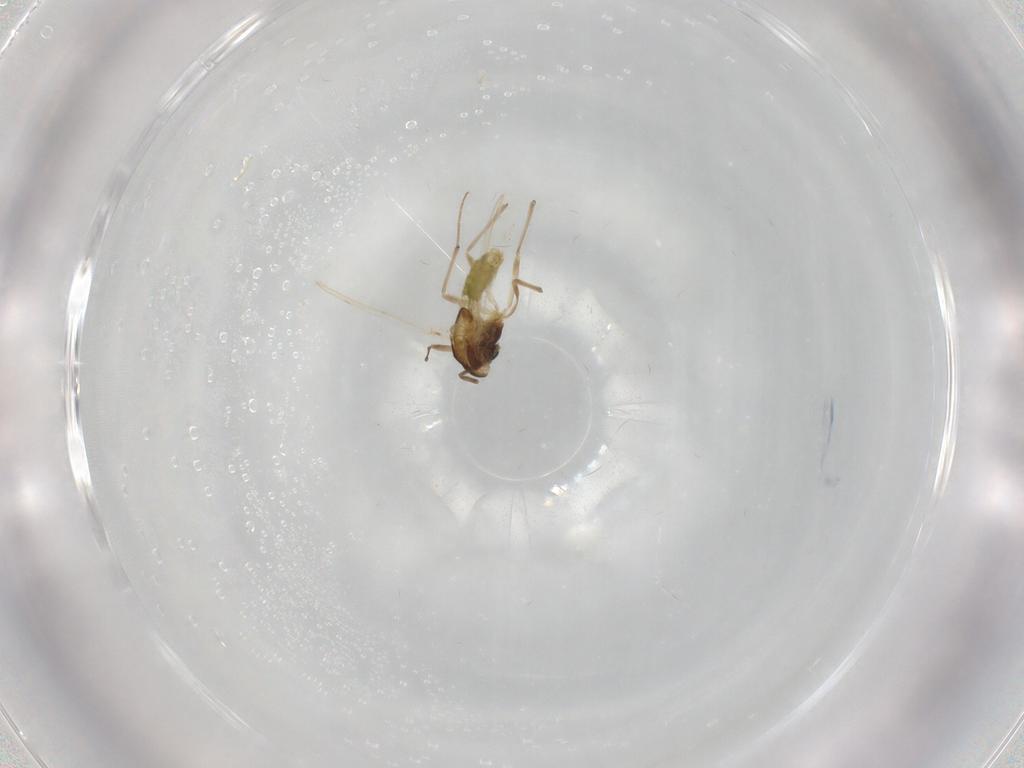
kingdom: Animalia
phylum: Arthropoda
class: Insecta
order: Diptera
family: Chironomidae
